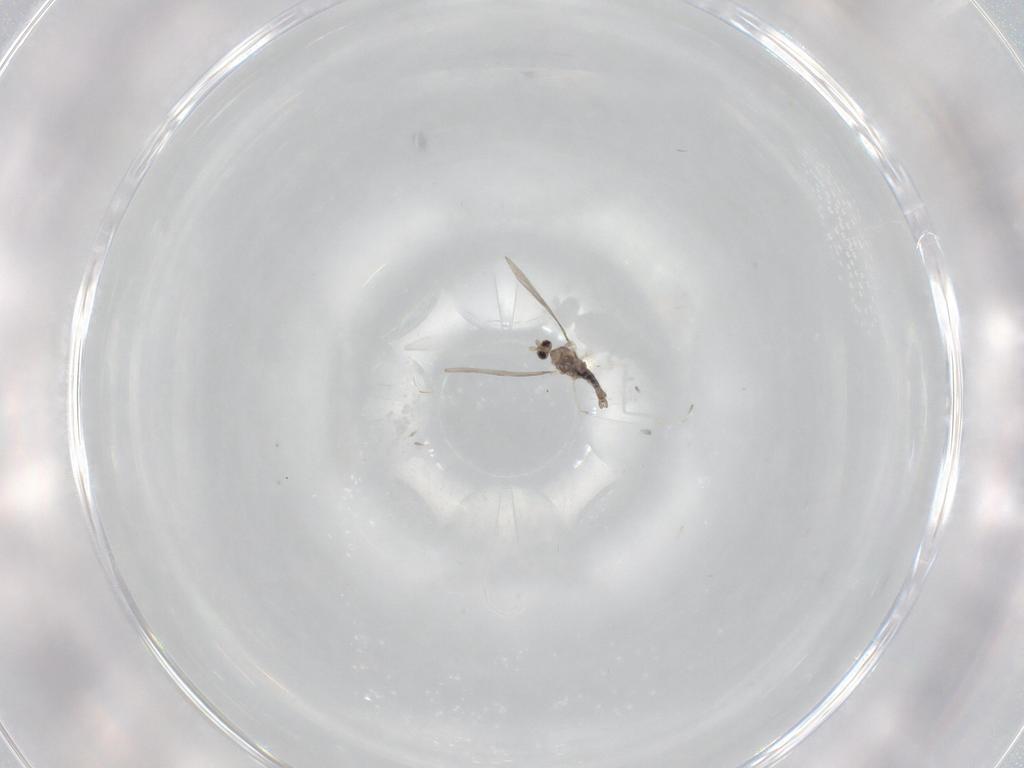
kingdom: Animalia
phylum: Arthropoda
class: Insecta
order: Diptera
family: Cecidomyiidae
